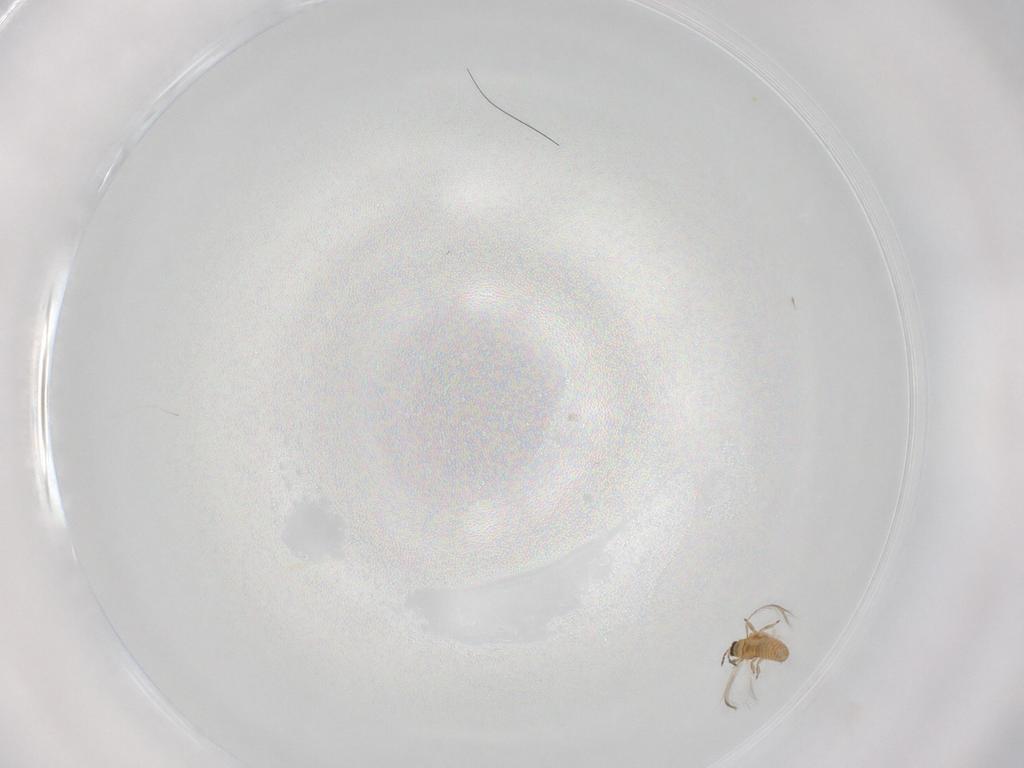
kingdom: Animalia
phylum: Arthropoda
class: Insecta
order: Thysanoptera
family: Thripidae
